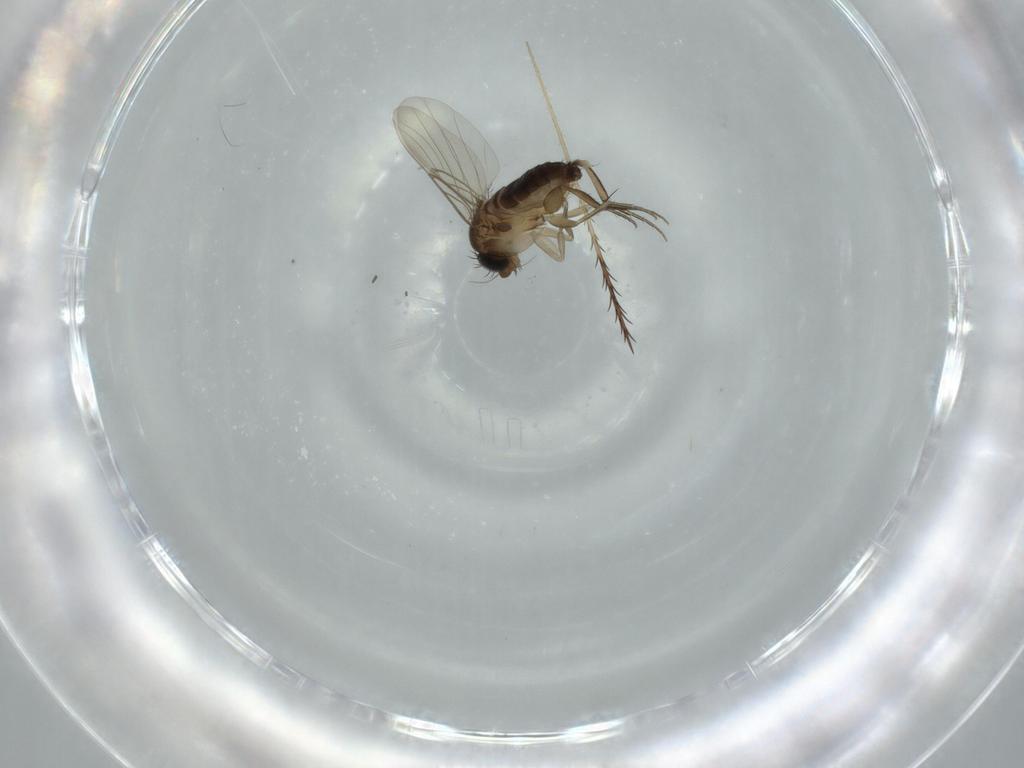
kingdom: Animalia
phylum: Arthropoda
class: Insecta
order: Diptera
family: Phoridae
